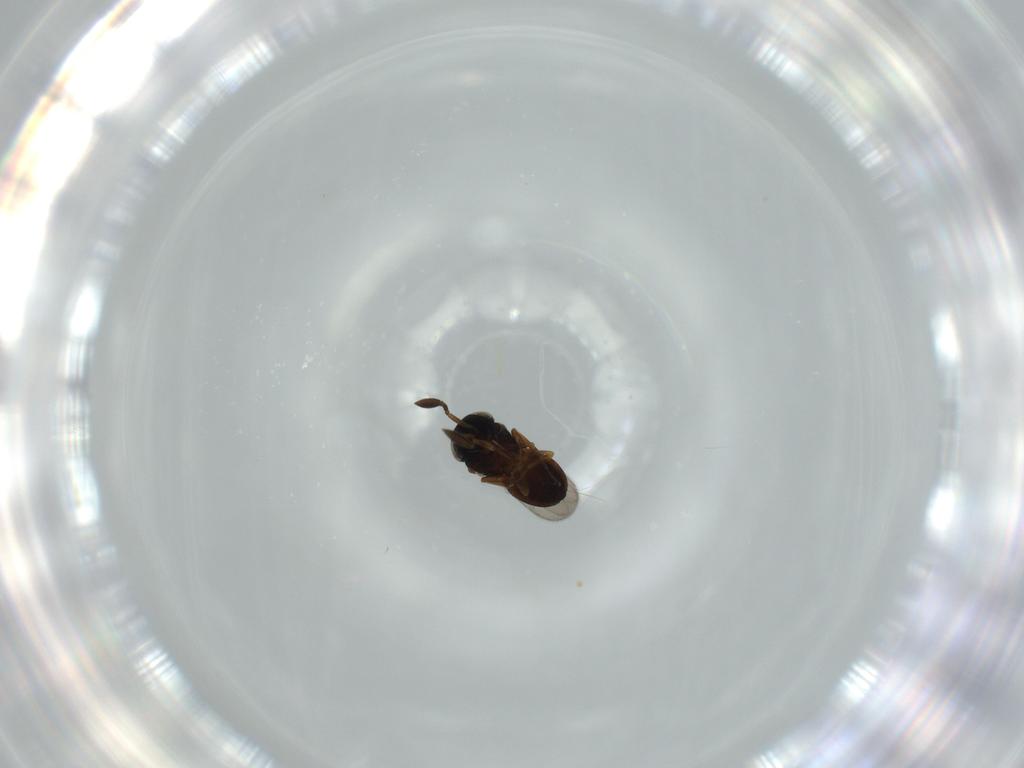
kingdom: Animalia
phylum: Arthropoda
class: Insecta
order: Hymenoptera
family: Scelionidae
